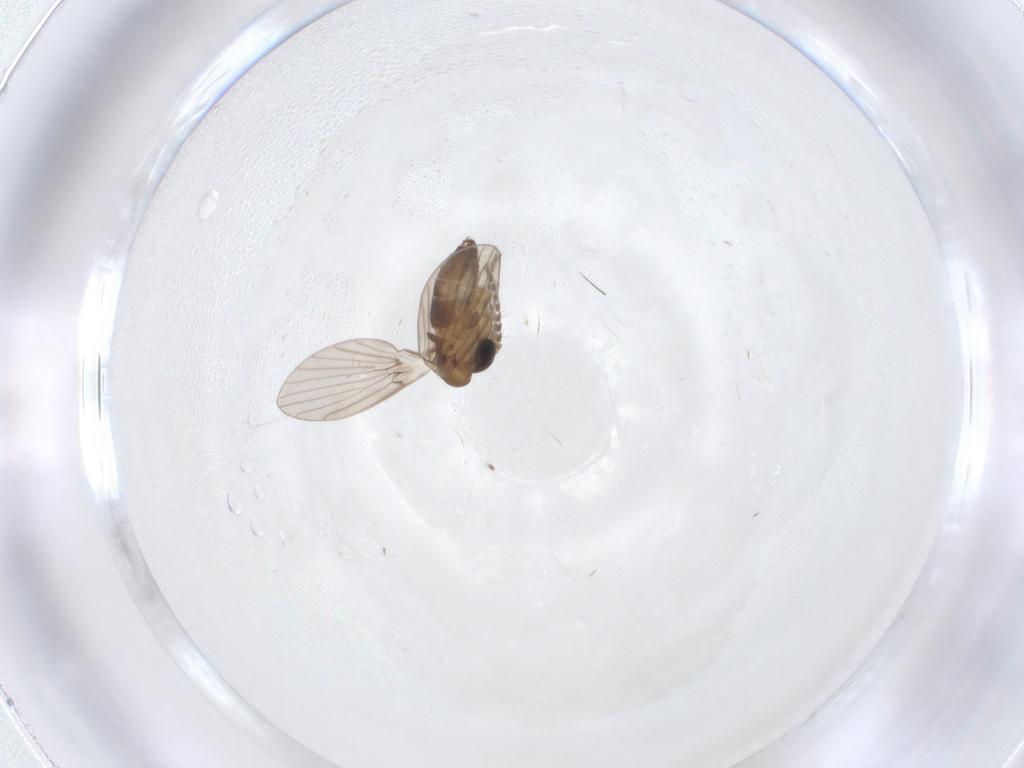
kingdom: Animalia
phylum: Arthropoda
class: Insecta
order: Diptera
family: Sciaridae
